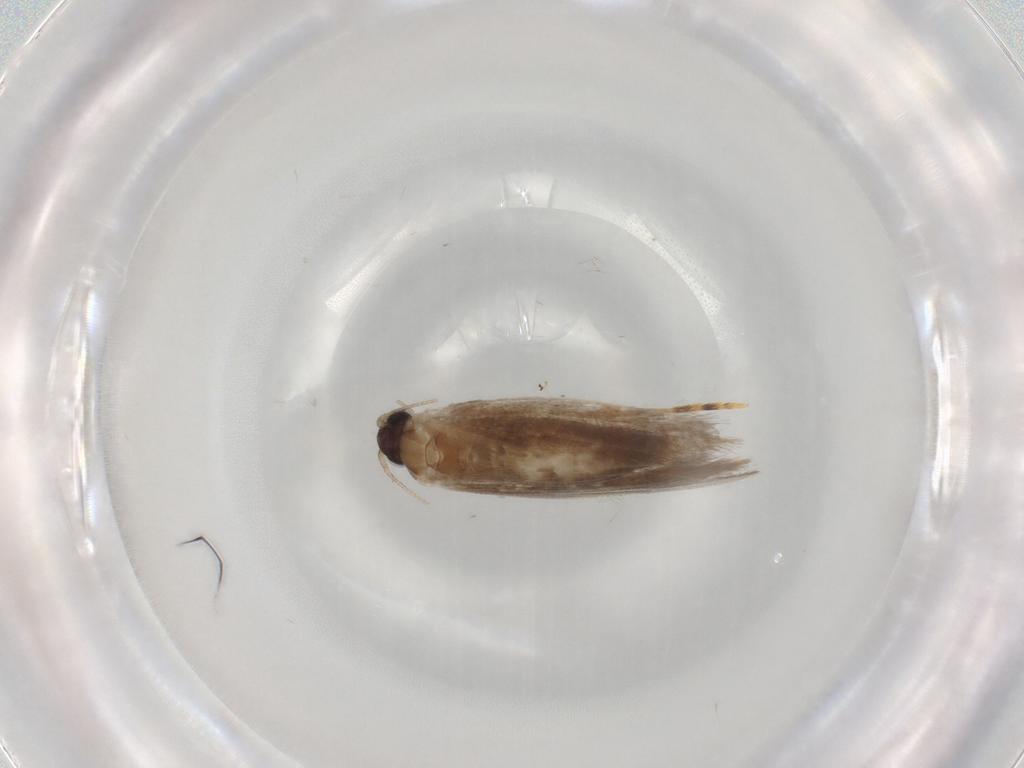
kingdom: Animalia
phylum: Arthropoda
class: Insecta
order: Lepidoptera
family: Tineidae
